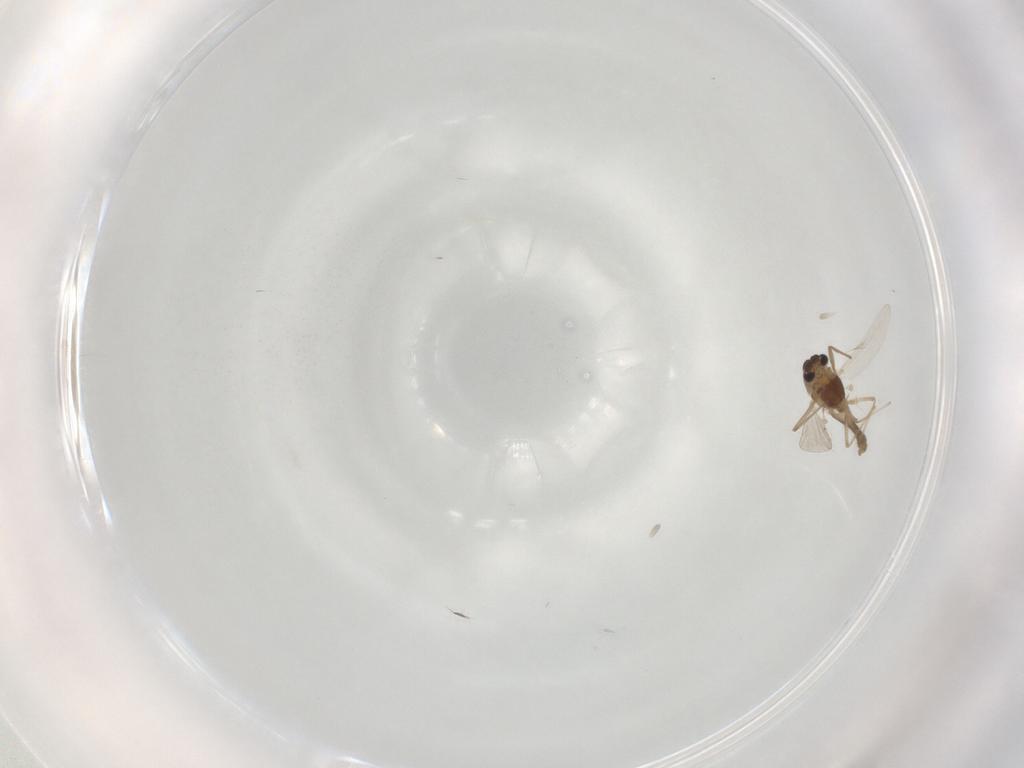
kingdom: Animalia
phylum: Arthropoda
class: Insecta
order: Diptera
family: Chironomidae
